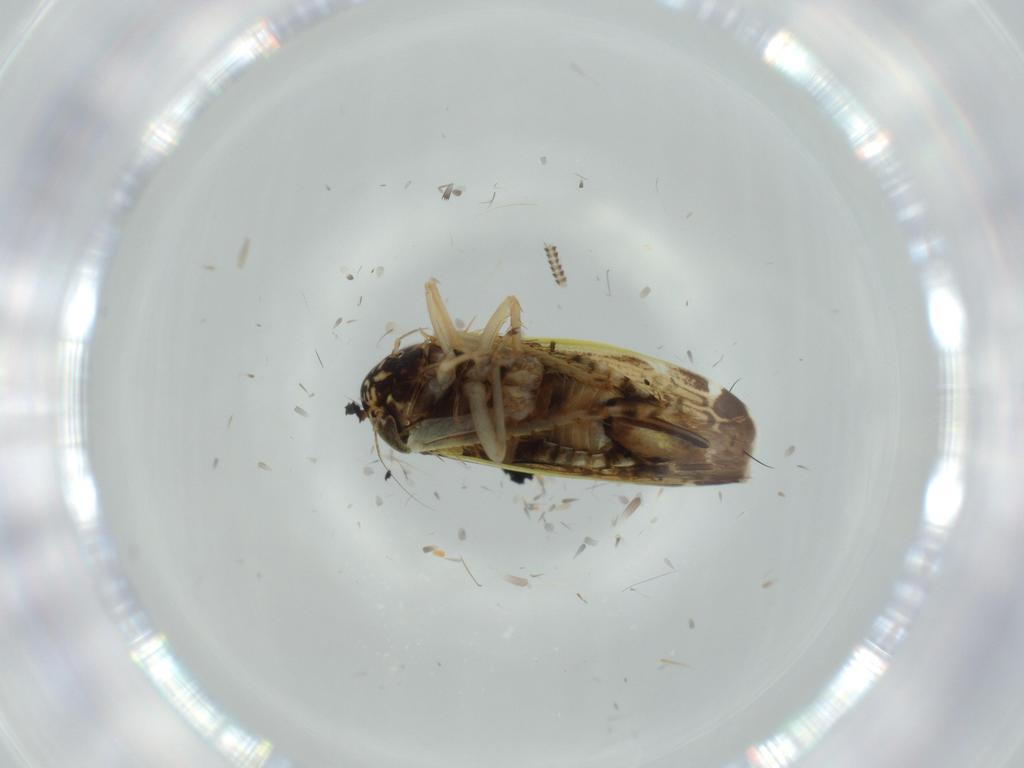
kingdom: Animalia
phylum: Arthropoda
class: Insecta
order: Hemiptera
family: Cicadellidae
